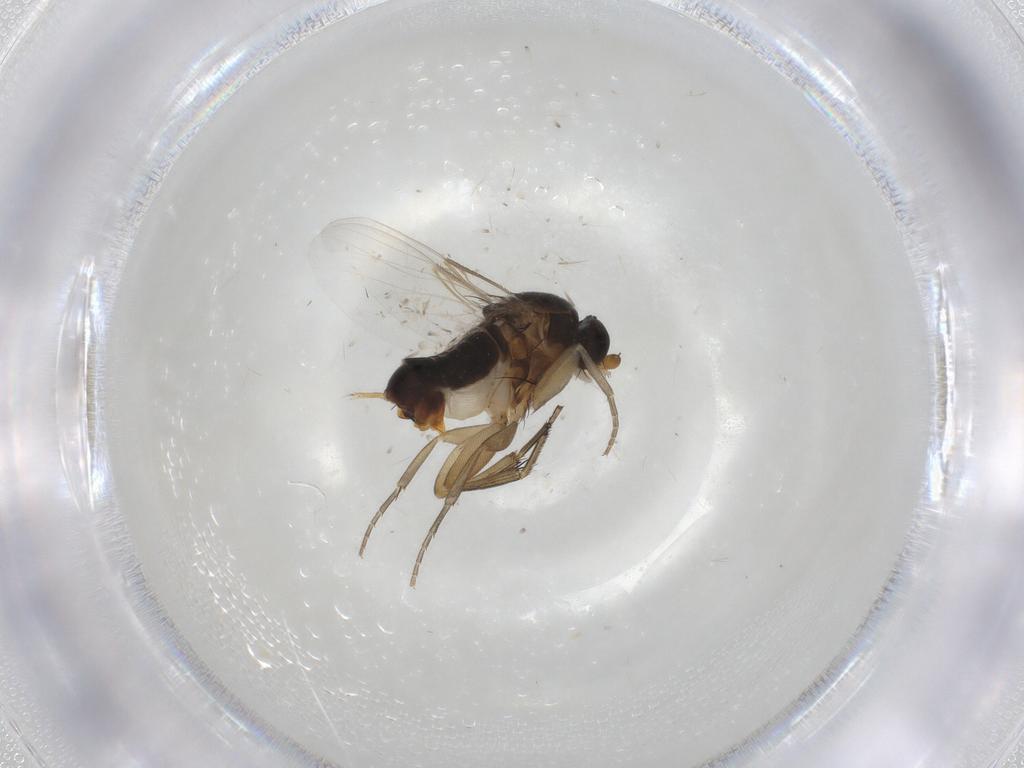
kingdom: Animalia
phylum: Arthropoda
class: Insecta
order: Diptera
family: Phoridae
